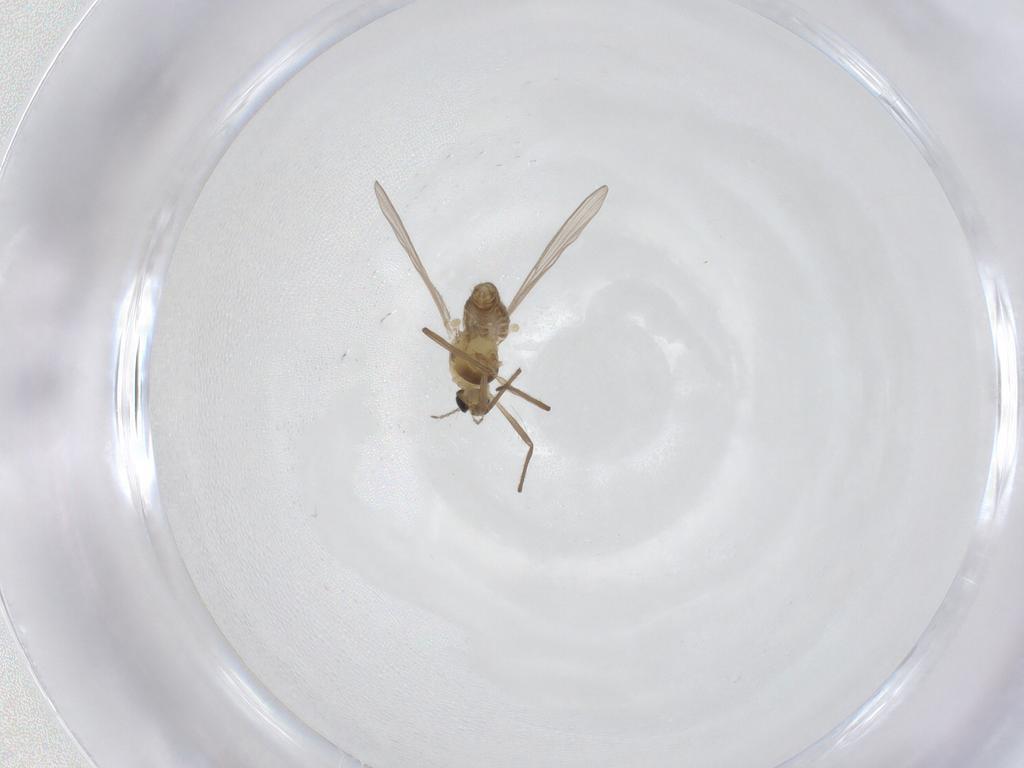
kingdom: Animalia
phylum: Arthropoda
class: Insecta
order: Diptera
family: Chironomidae
